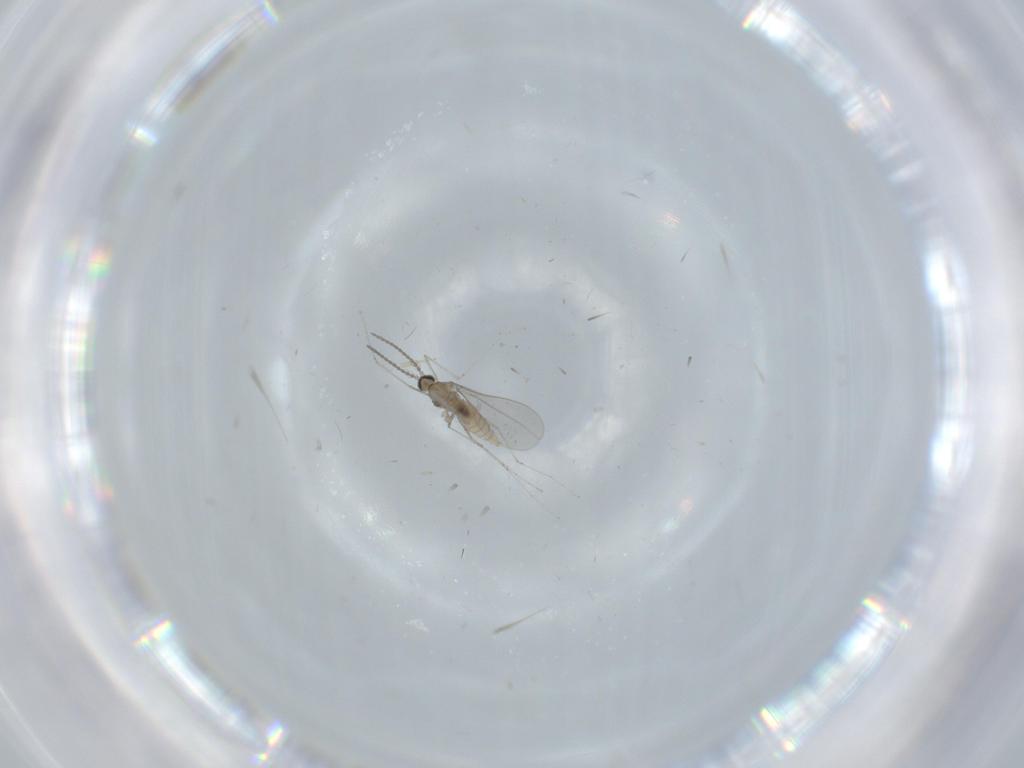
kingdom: Animalia
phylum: Arthropoda
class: Insecta
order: Diptera
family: Cecidomyiidae
